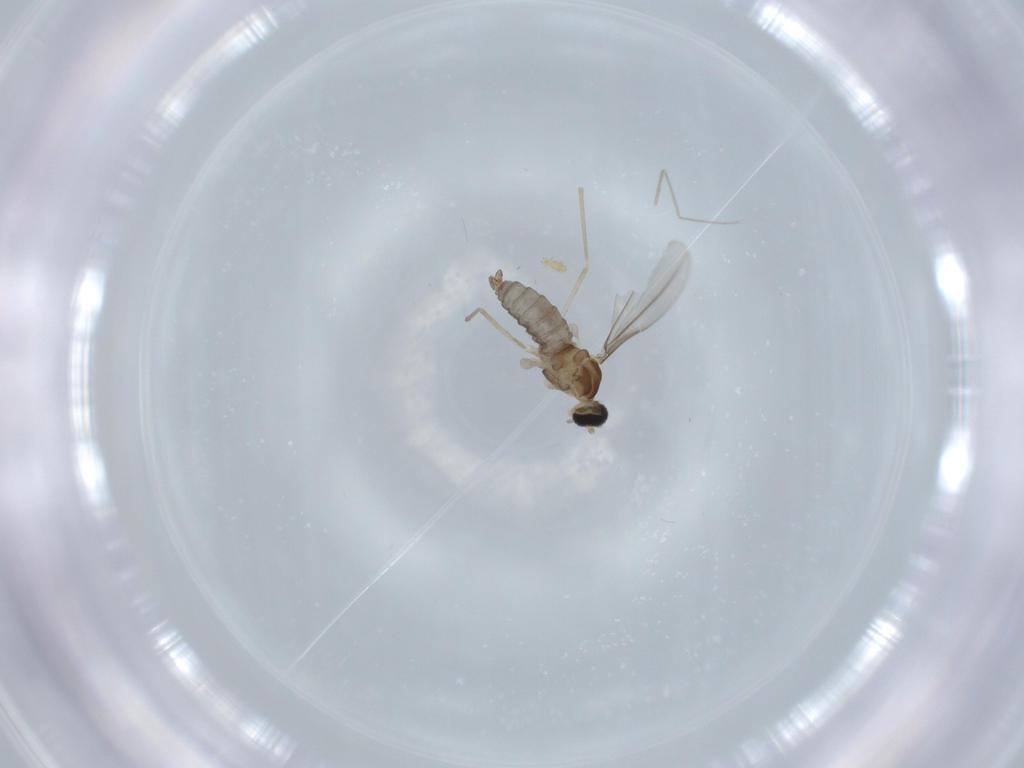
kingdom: Animalia
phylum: Arthropoda
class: Insecta
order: Diptera
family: Cecidomyiidae
